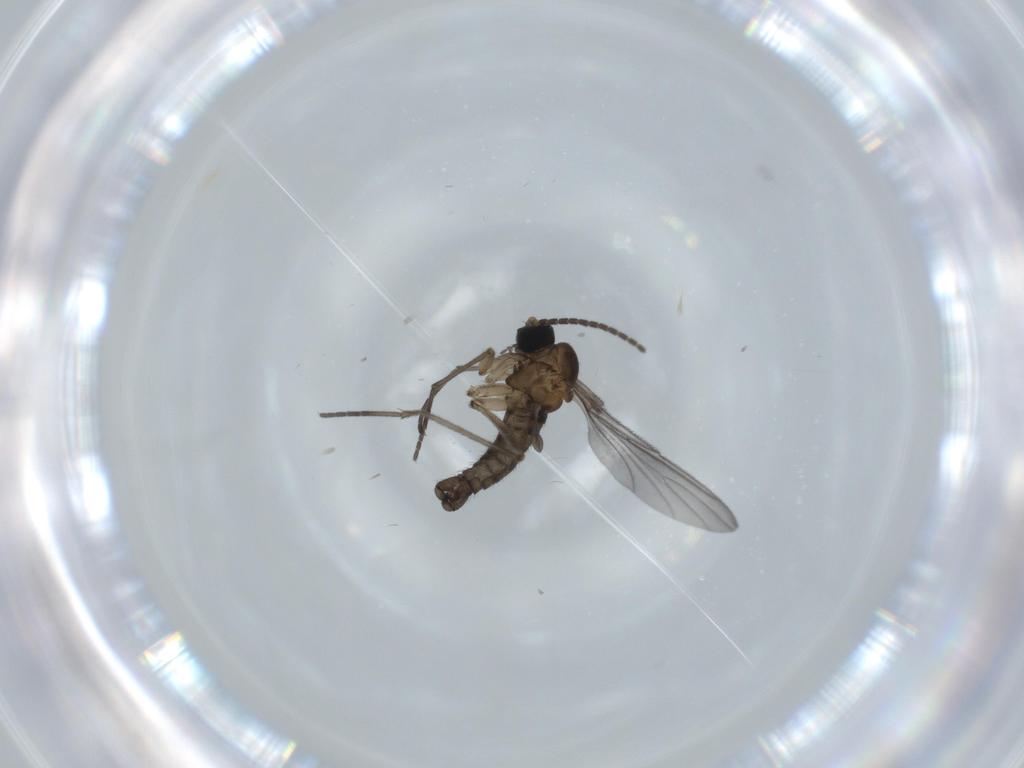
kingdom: Animalia
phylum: Arthropoda
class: Insecta
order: Diptera
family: Sciaridae
